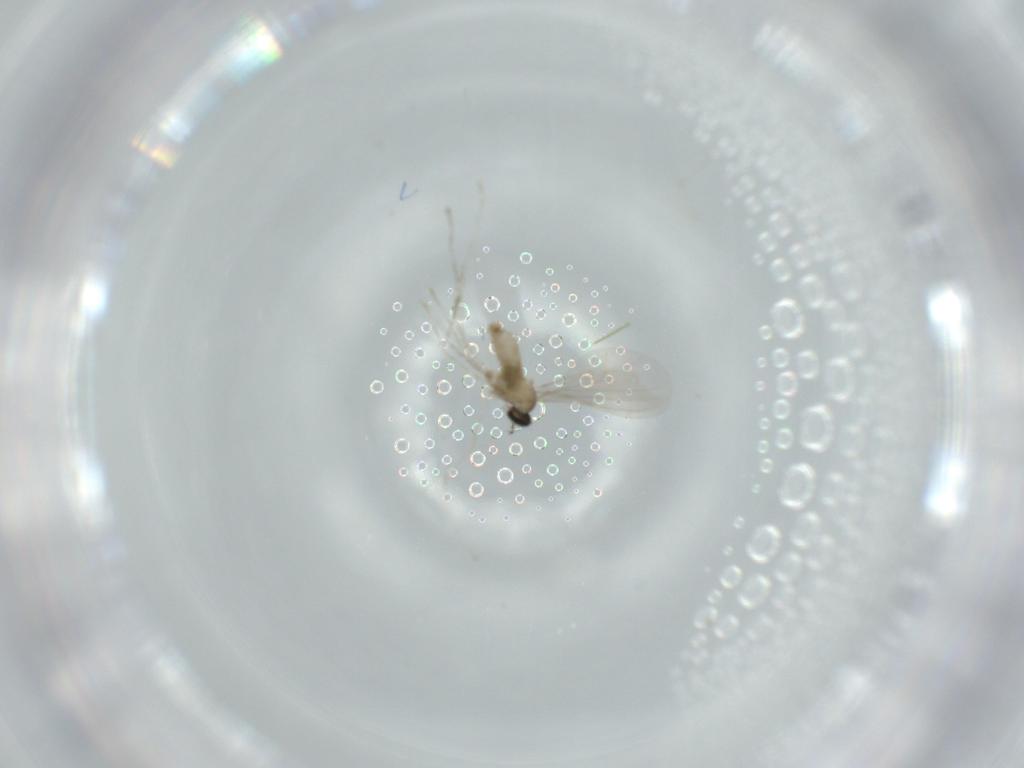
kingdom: Animalia
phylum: Arthropoda
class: Insecta
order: Diptera
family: Cecidomyiidae
